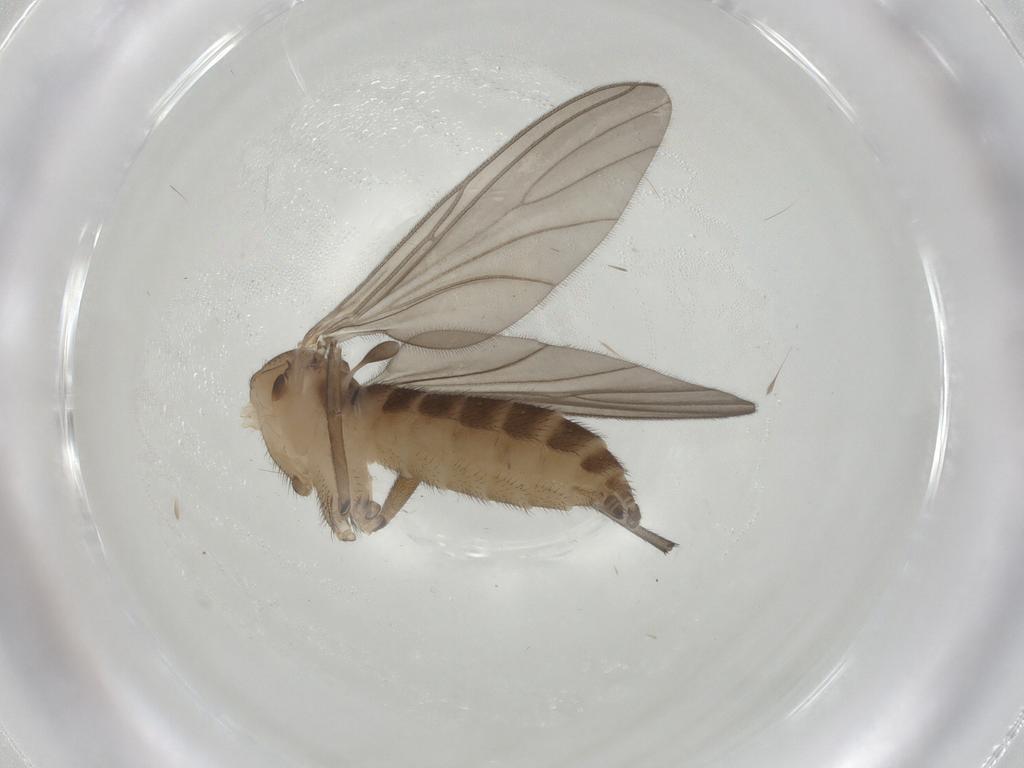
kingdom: Animalia
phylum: Arthropoda
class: Insecta
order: Diptera
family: Sciaridae
